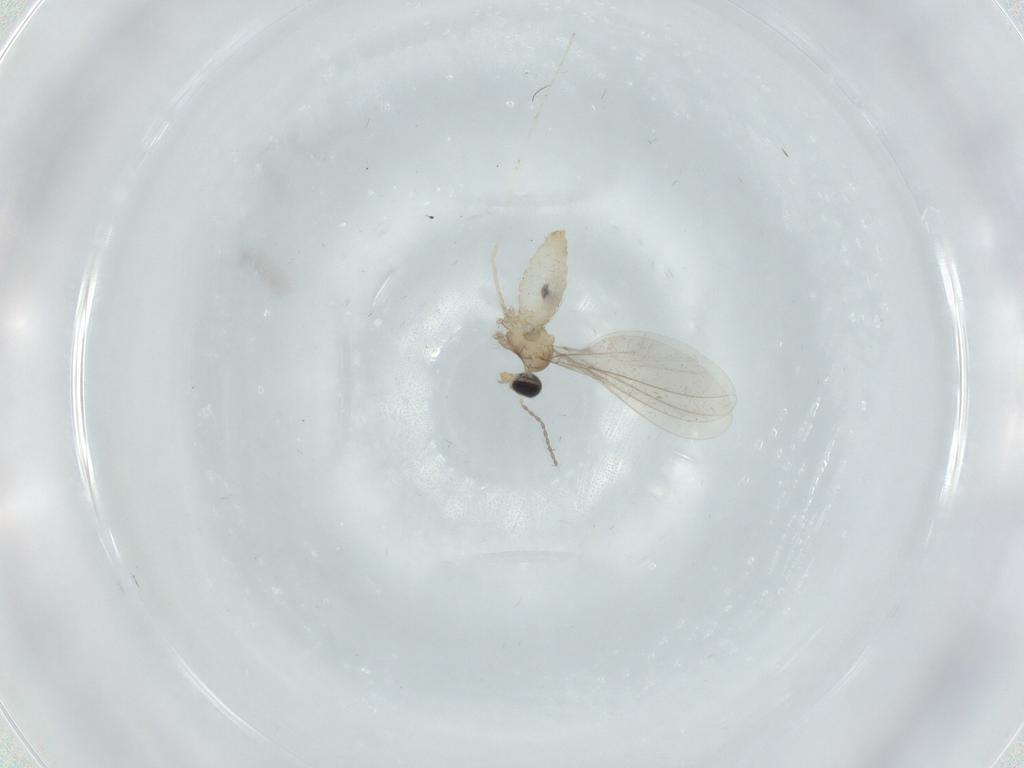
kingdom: Animalia
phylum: Arthropoda
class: Insecta
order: Diptera
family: Cecidomyiidae
